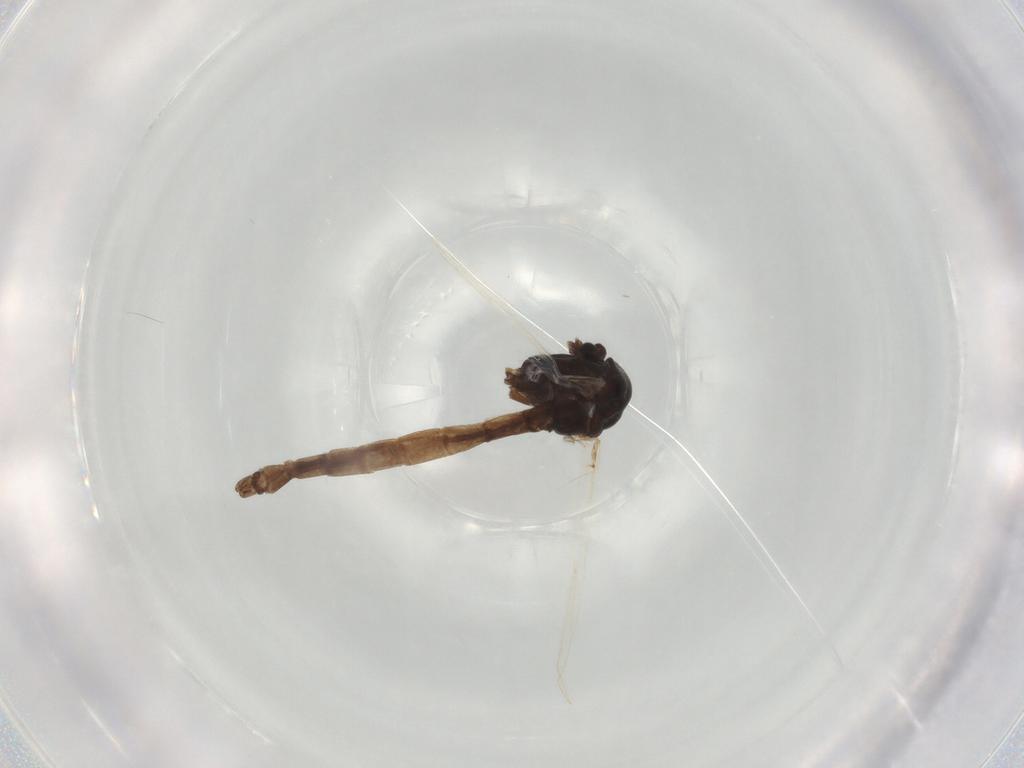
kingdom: Animalia
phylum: Arthropoda
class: Insecta
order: Diptera
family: Chironomidae
